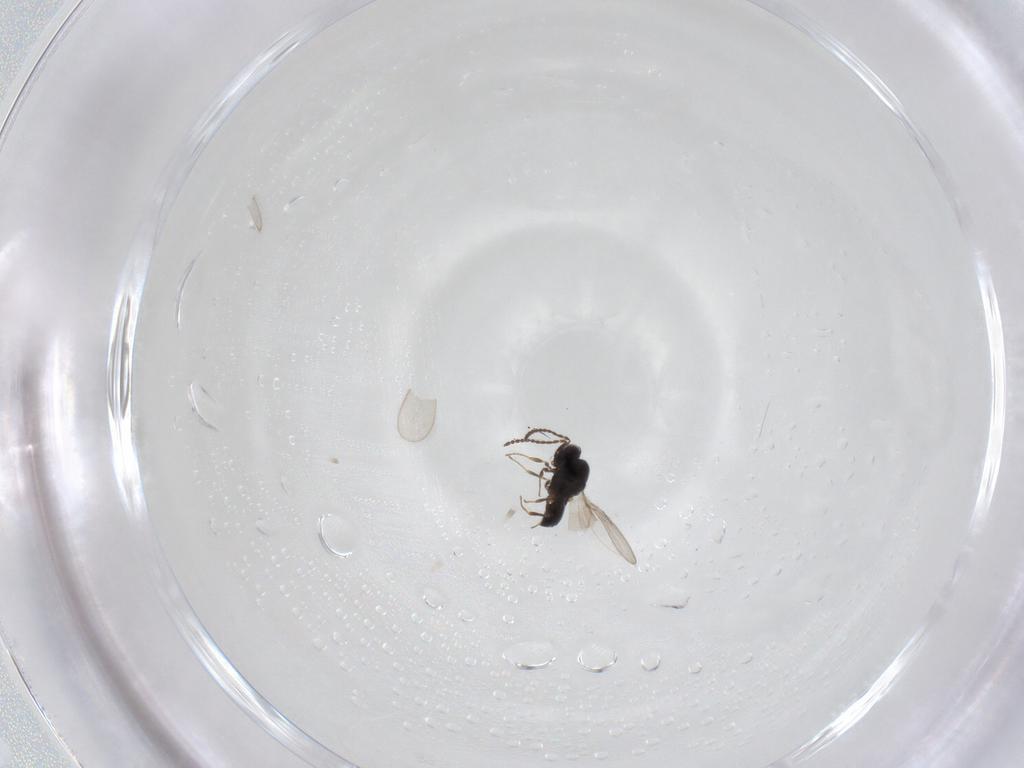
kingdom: Animalia
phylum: Arthropoda
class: Insecta
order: Hymenoptera
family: Scelionidae
